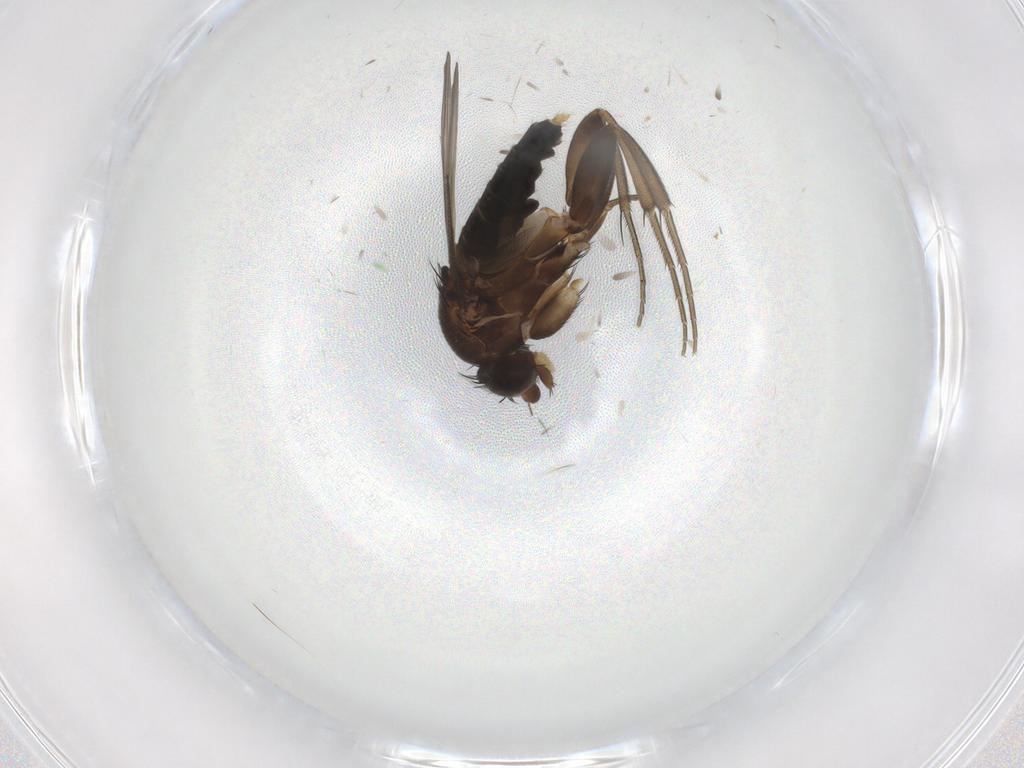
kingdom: Animalia
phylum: Arthropoda
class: Insecta
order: Diptera
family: Phoridae
